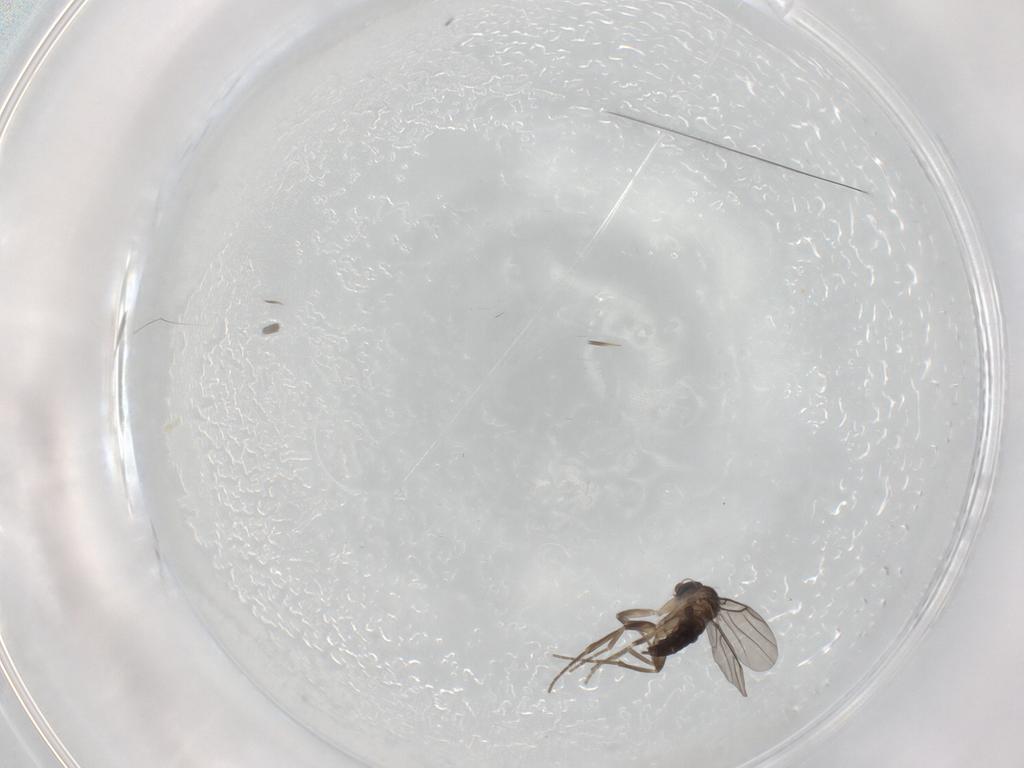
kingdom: Animalia
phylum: Arthropoda
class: Insecta
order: Diptera
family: Phoridae
